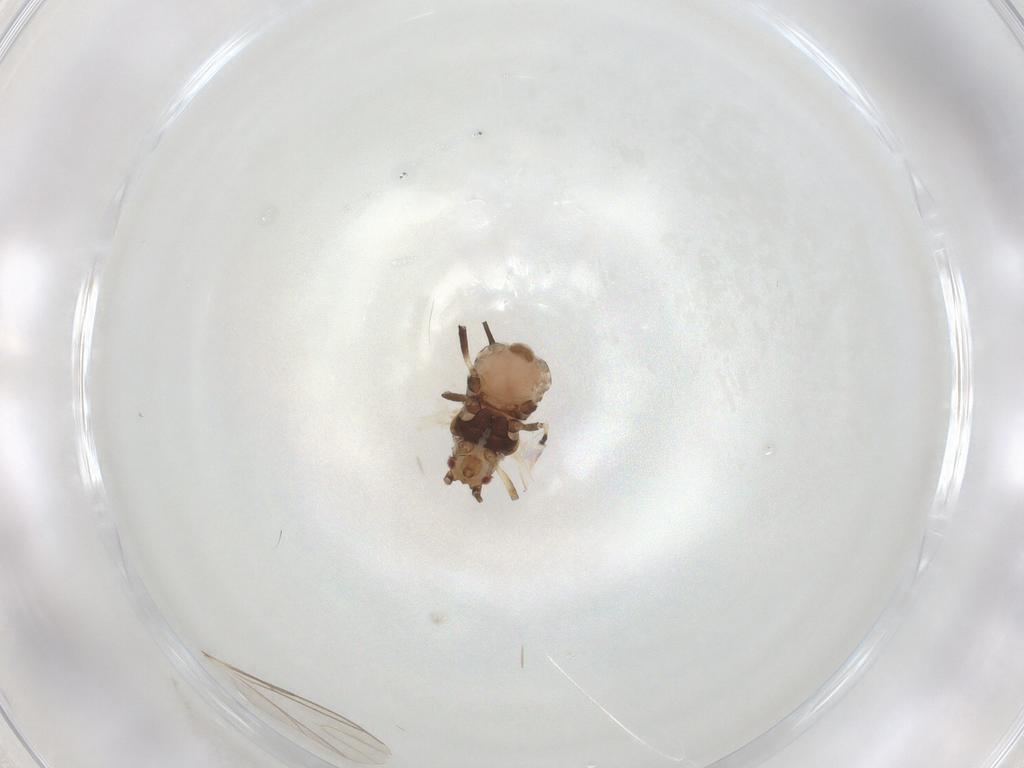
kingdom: Animalia
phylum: Arthropoda
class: Insecta
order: Hemiptera
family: Aphididae
